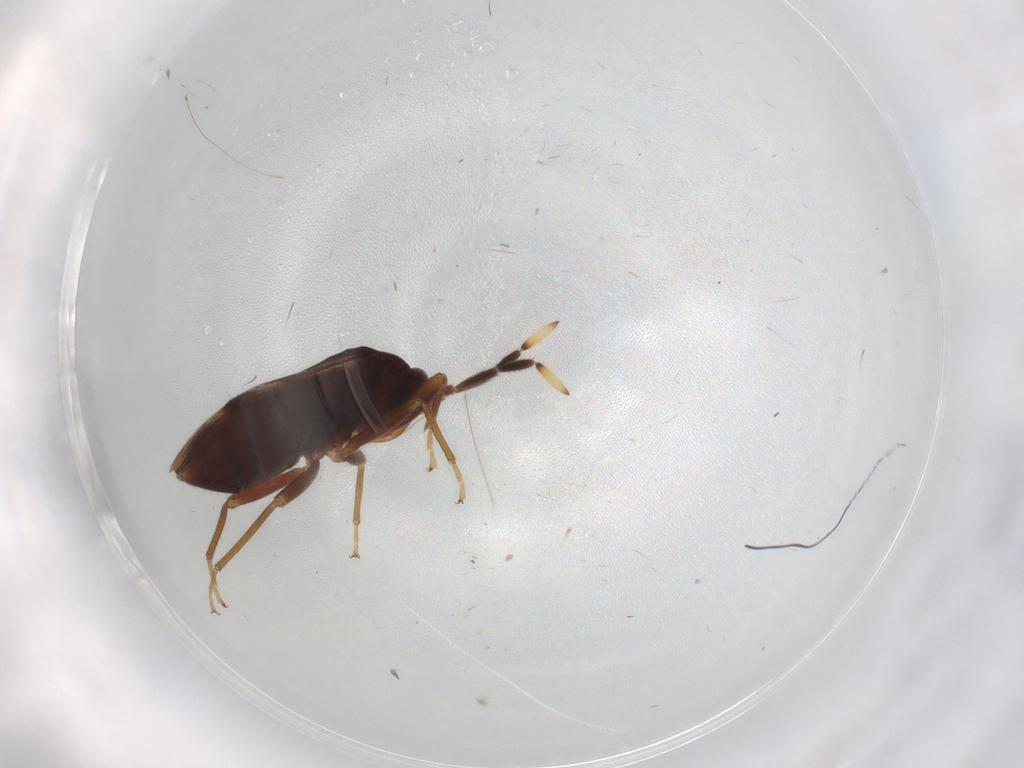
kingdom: Animalia
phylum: Arthropoda
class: Insecta
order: Hemiptera
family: Rhyparochromidae
